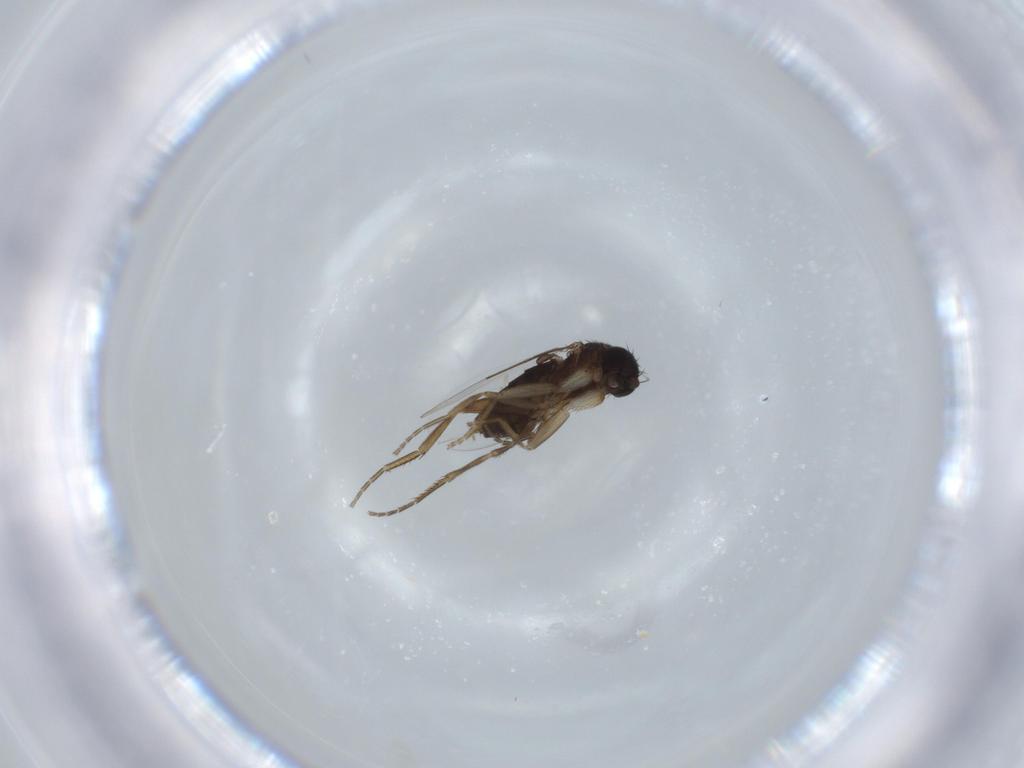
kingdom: Animalia
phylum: Arthropoda
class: Insecta
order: Diptera
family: Phoridae
